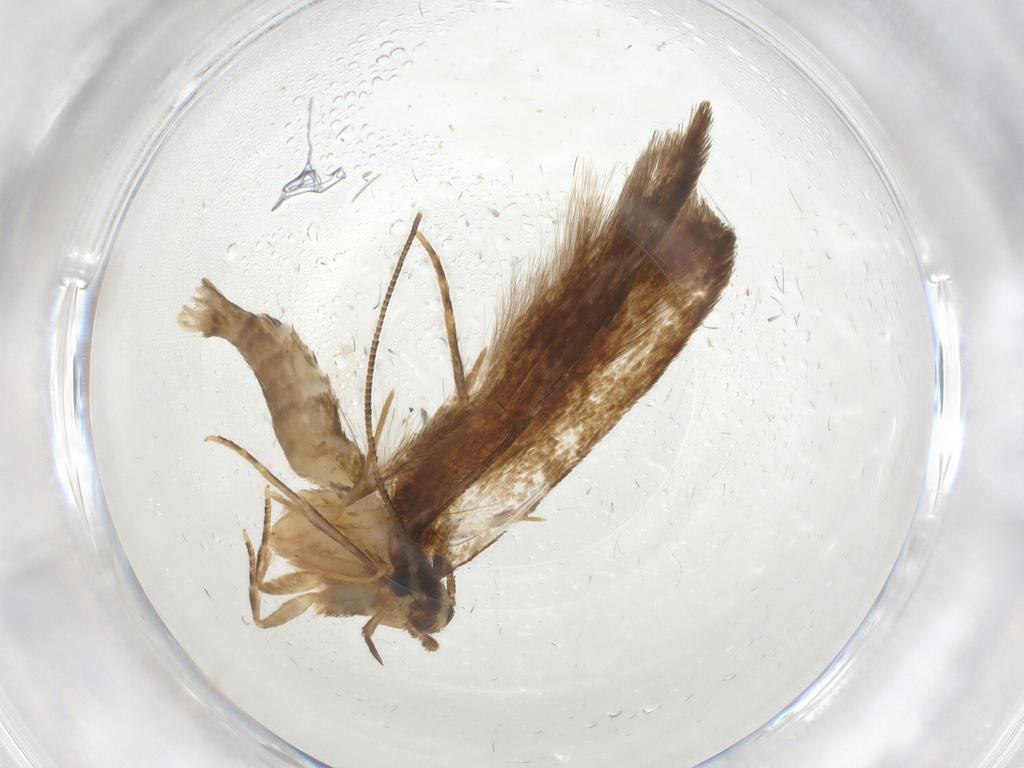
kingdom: Animalia
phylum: Arthropoda
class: Insecta
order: Lepidoptera
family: Tineidae
